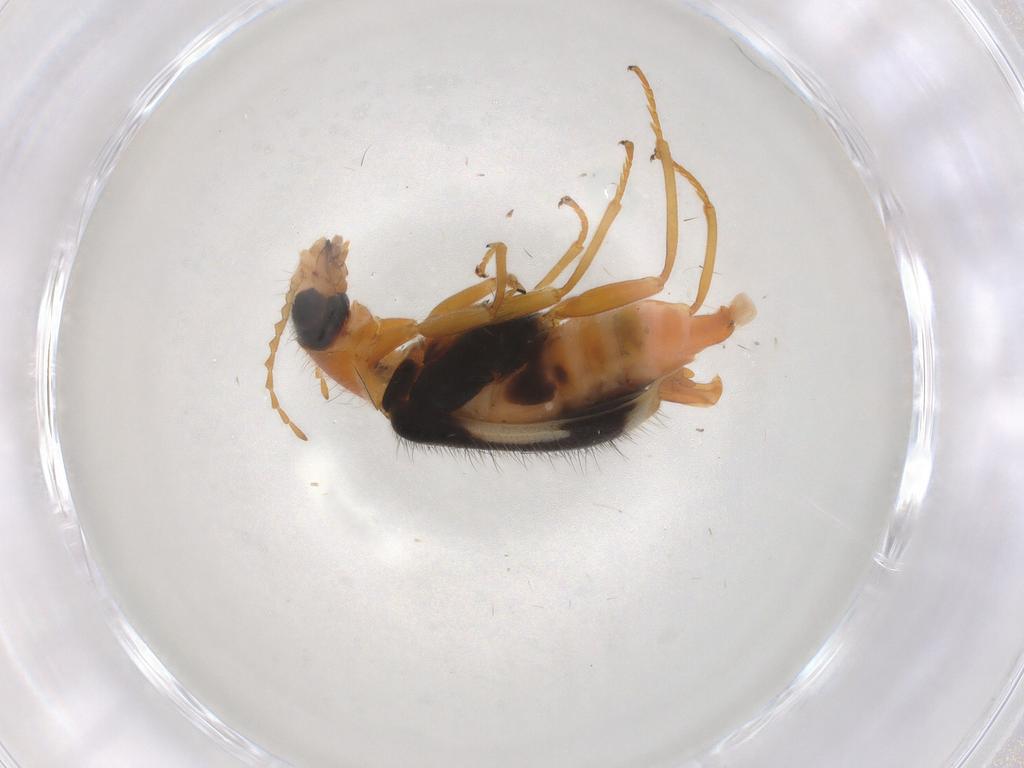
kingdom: Animalia
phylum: Arthropoda
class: Insecta
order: Coleoptera
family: Melyridae
